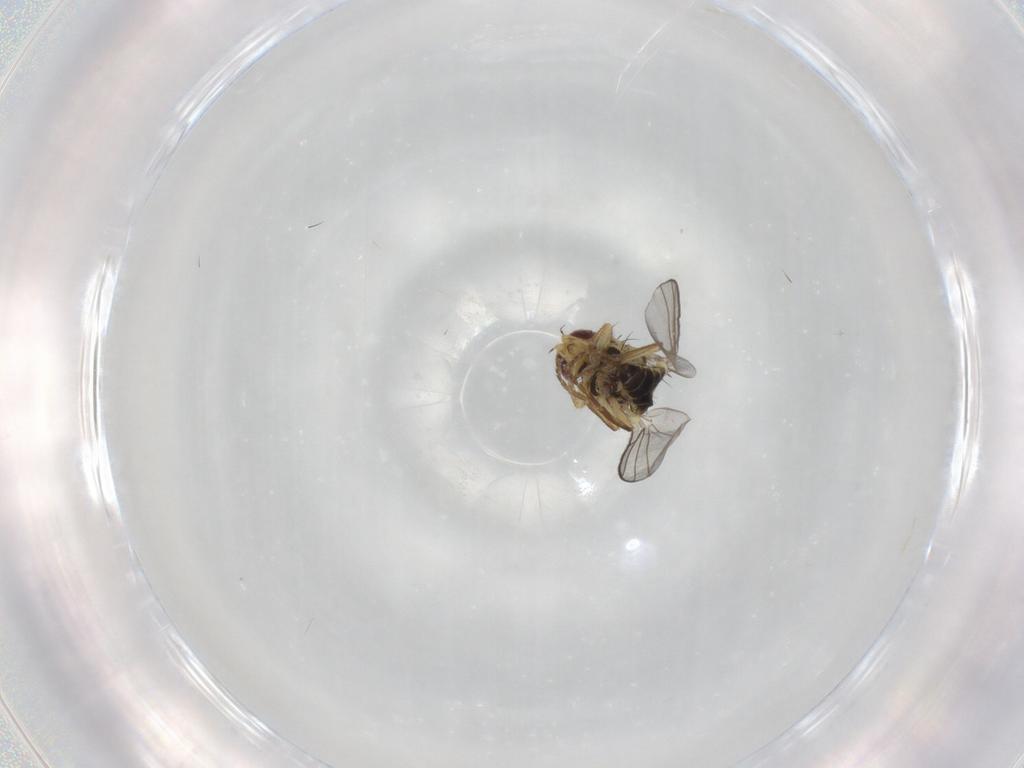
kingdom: Animalia
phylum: Arthropoda
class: Insecta
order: Diptera
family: Agromyzidae
